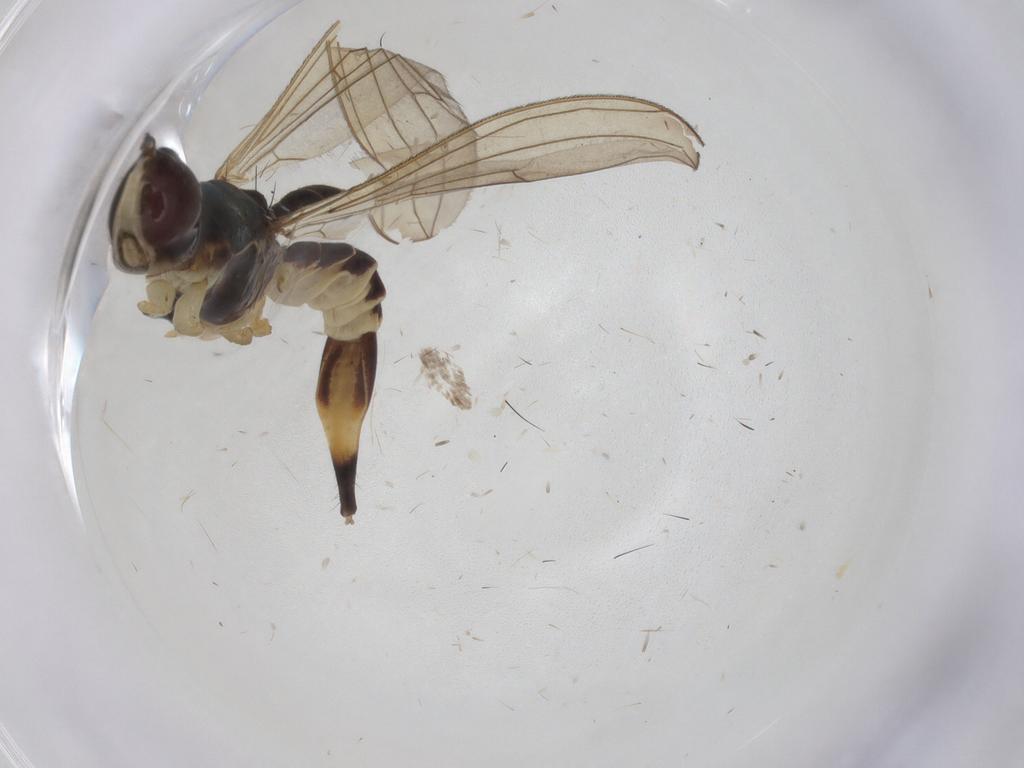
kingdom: Animalia
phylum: Arthropoda
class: Insecta
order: Diptera
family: Micropezidae
